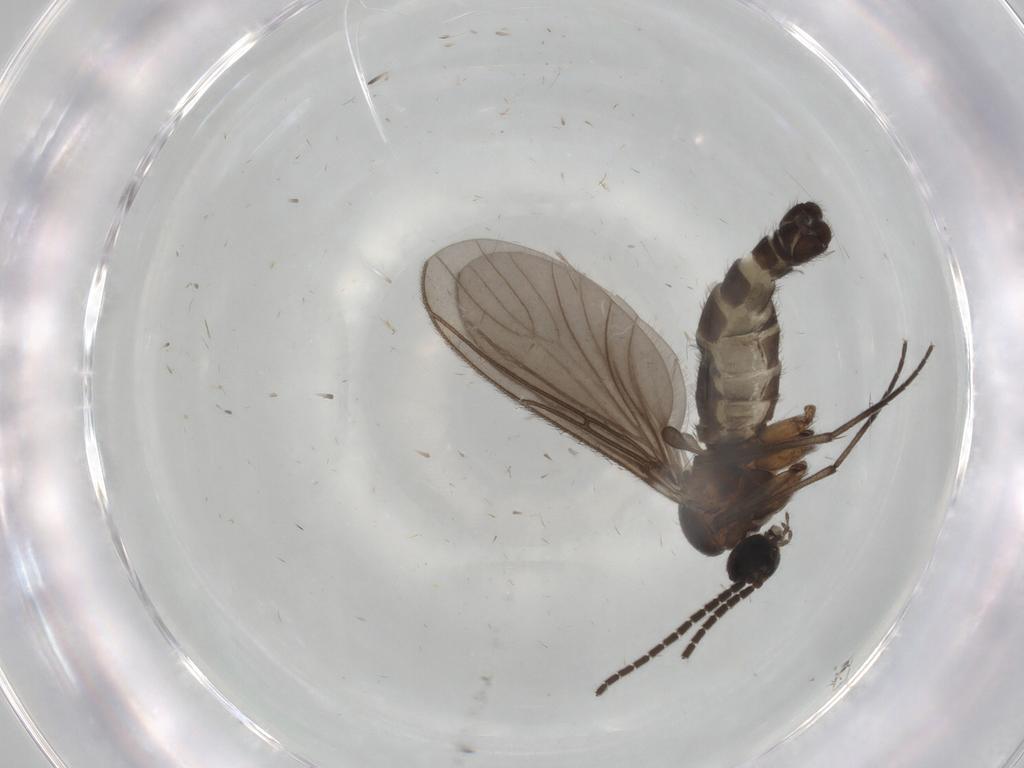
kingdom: Animalia
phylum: Arthropoda
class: Insecta
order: Diptera
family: Sciaridae
